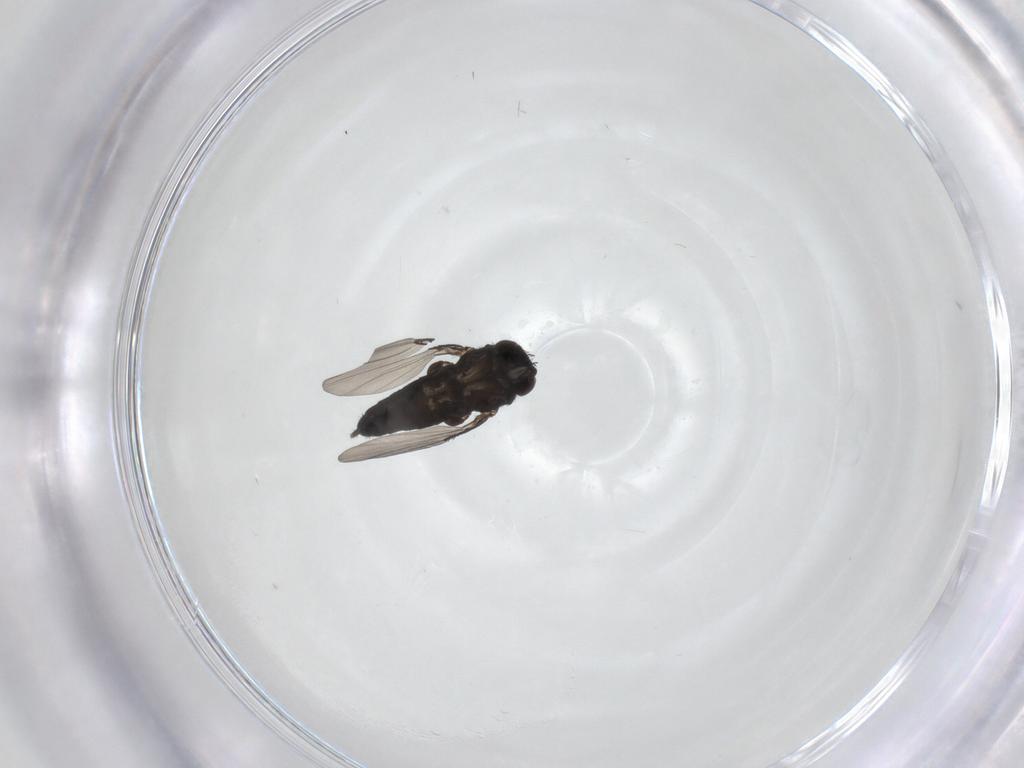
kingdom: Animalia
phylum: Arthropoda
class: Insecta
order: Diptera
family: Phoridae
